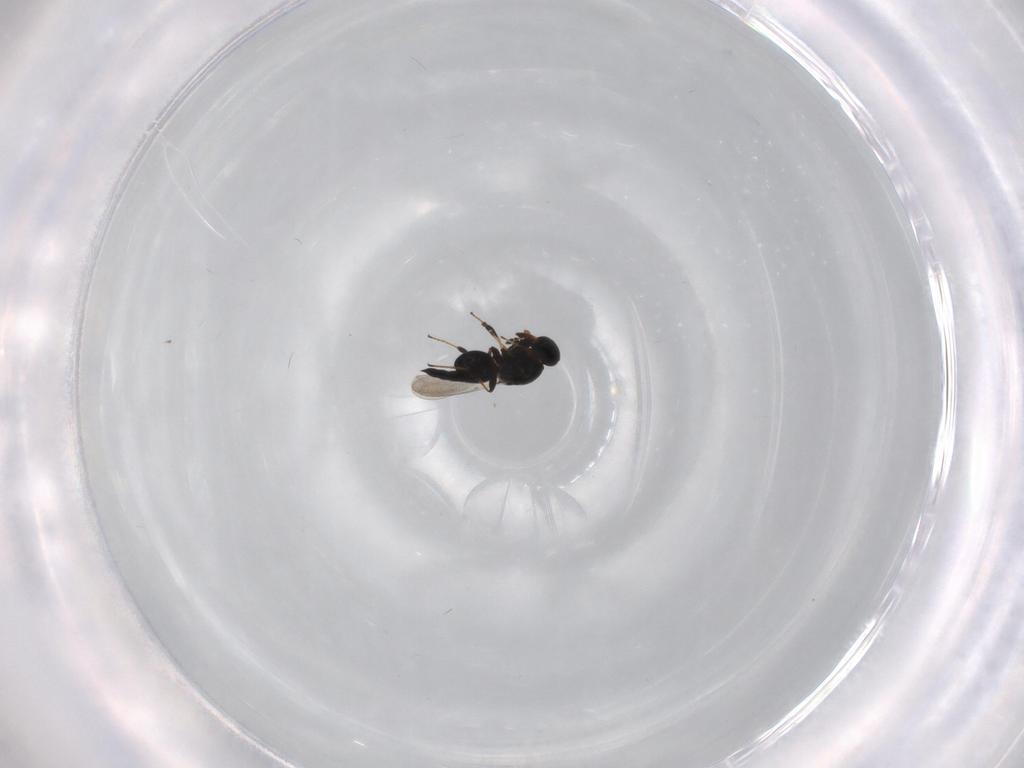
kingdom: Animalia
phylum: Arthropoda
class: Insecta
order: Hymenoptera
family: Platygastridae
